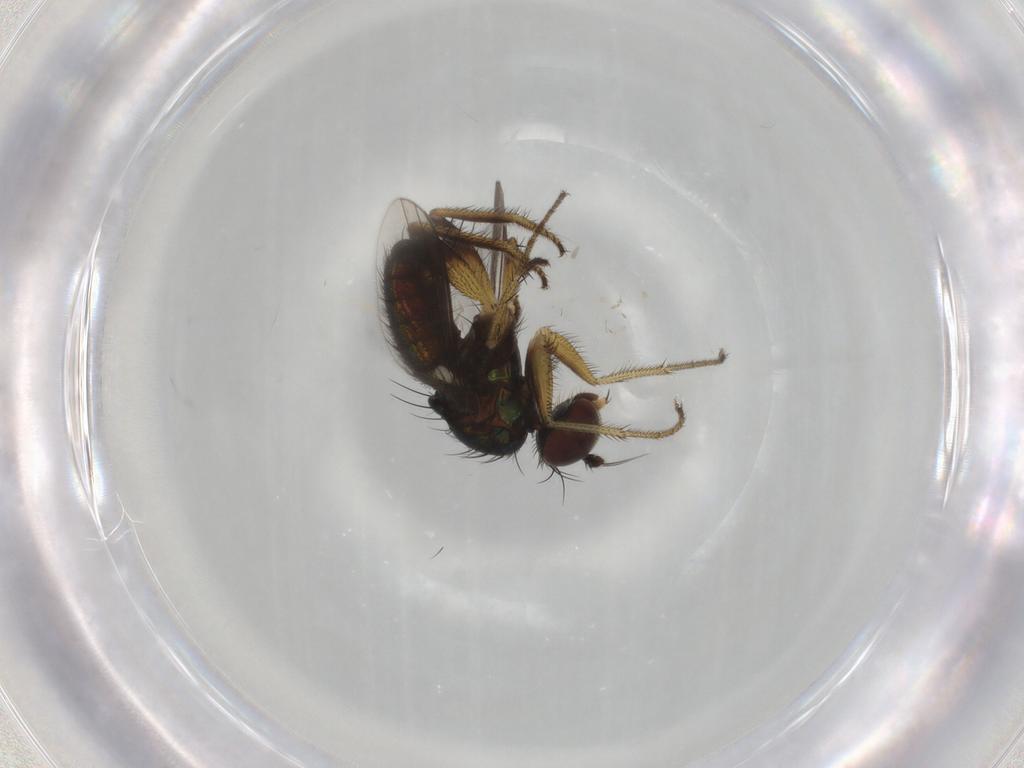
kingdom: Animalia
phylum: Arthropoda
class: Insecta
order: Diptera
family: Dolichopodidae
